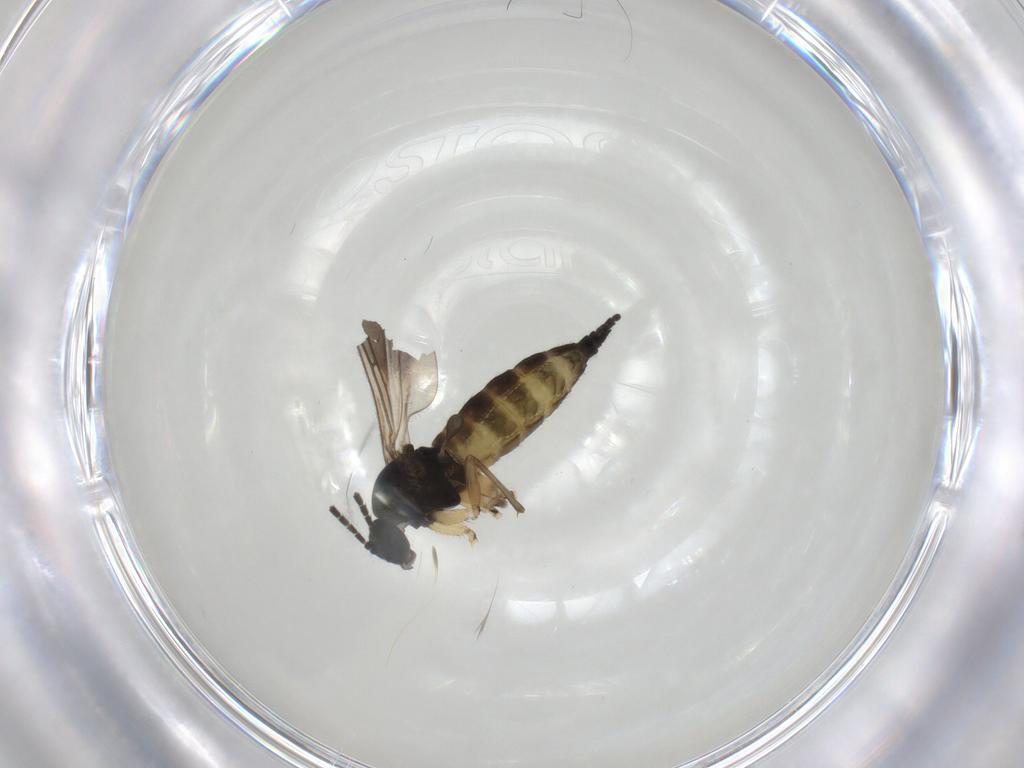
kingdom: Animalia
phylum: Arthropoda
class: Insecta
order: Diptera
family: Sciaridae
